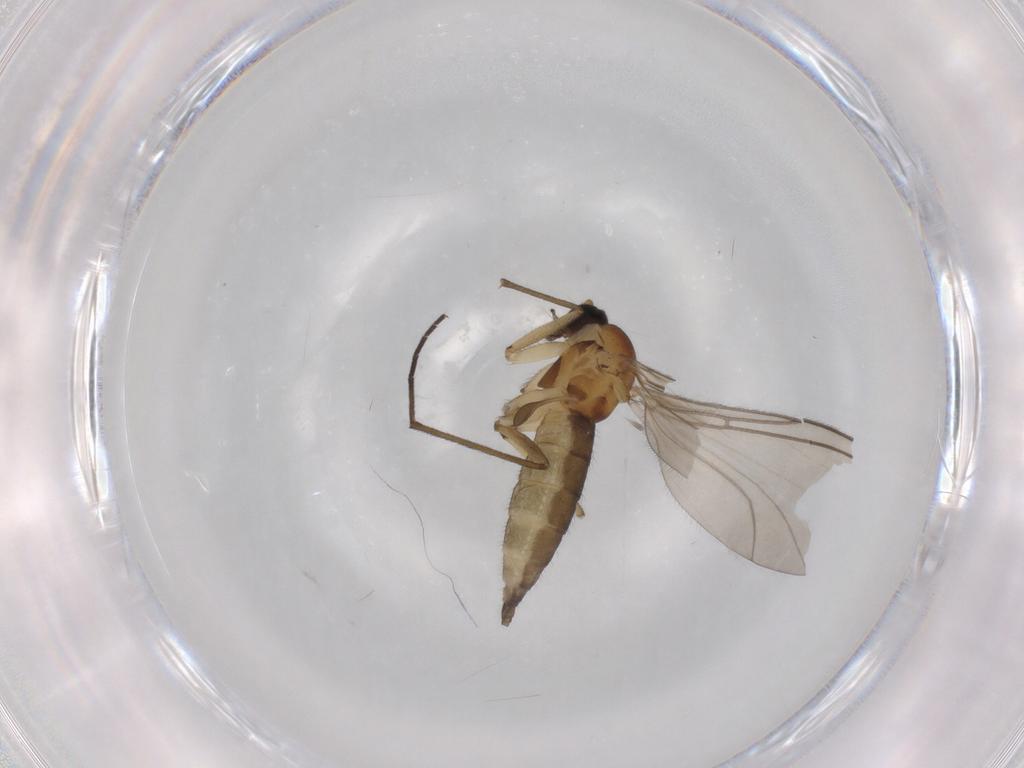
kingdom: Animalia
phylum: Arthropoda
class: Insecta
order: Diptera
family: Sciaridae
